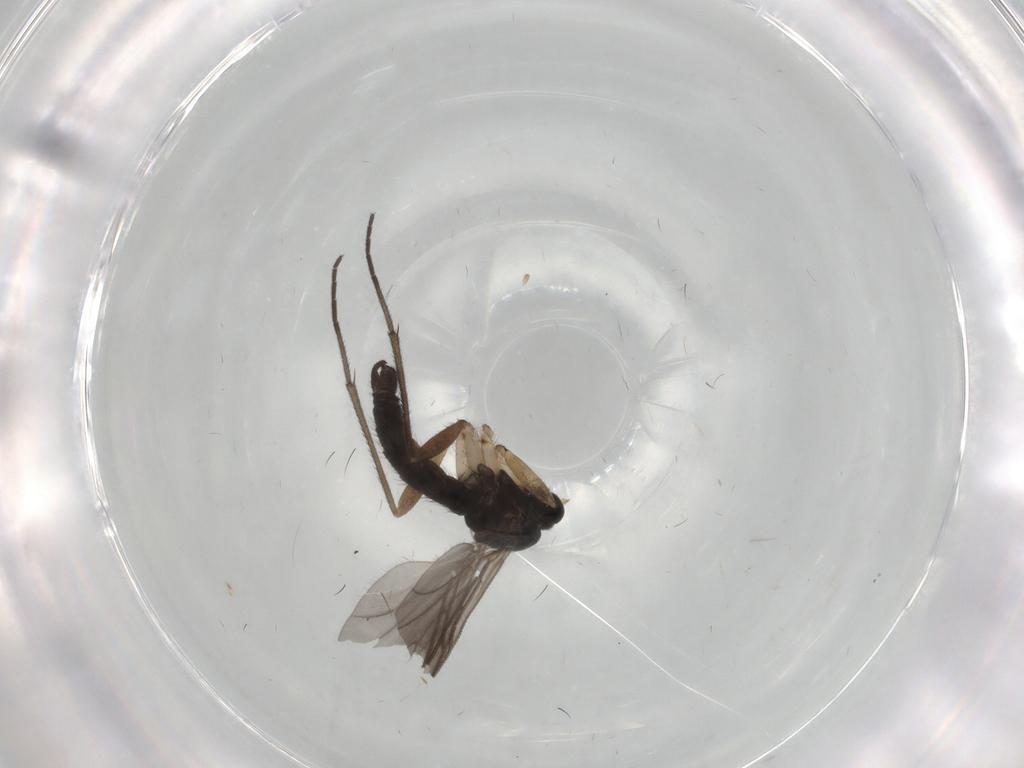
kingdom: Animalia
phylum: Arthropoda
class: Insecta
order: Diptera
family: Sciaridae
